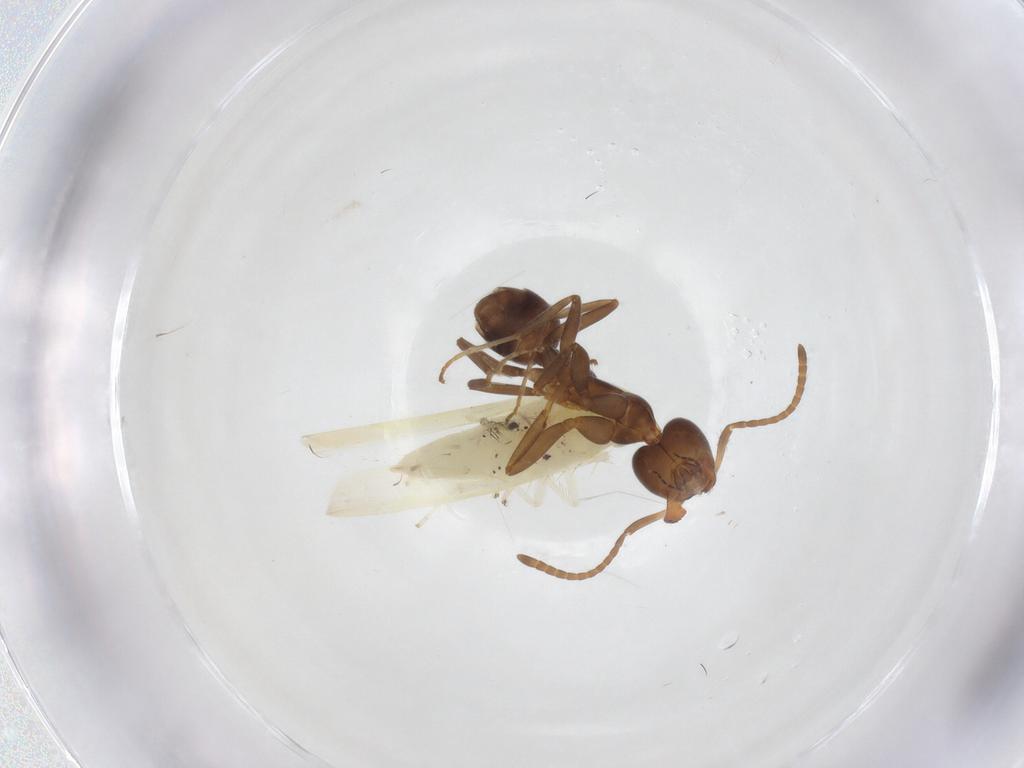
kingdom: Animalia
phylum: Arthropoda
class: Insecta
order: Hymenoptera
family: Formicidae
